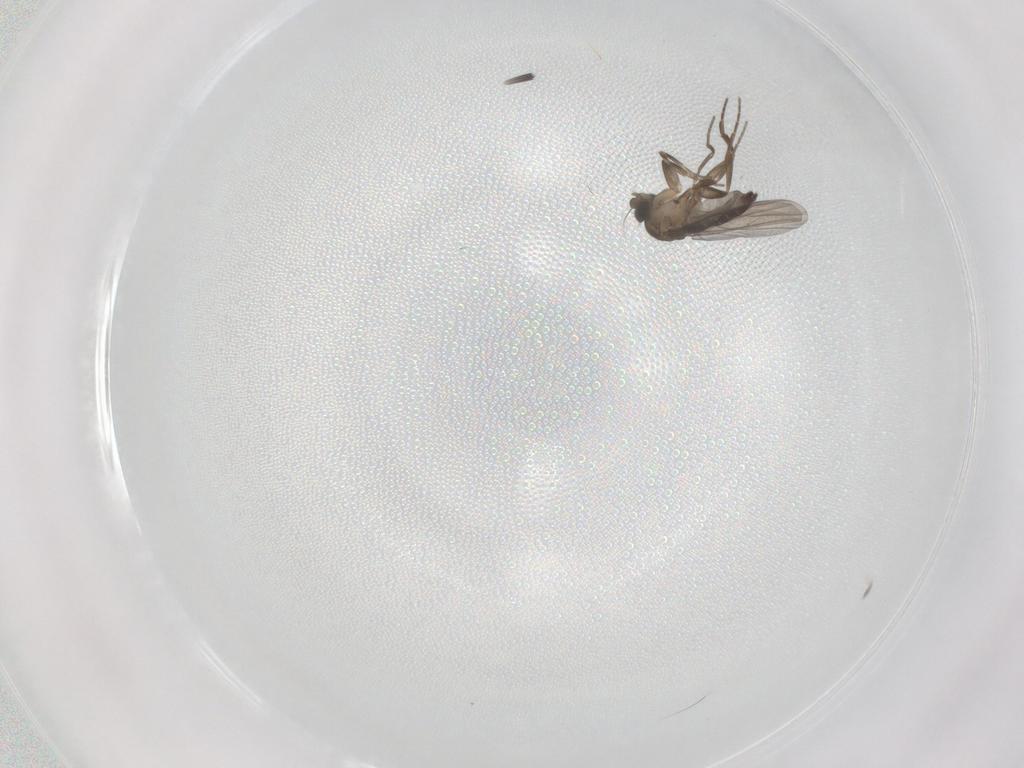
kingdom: Animalia
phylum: Arthropoda
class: Insecta
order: Diptera
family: Phoridae
